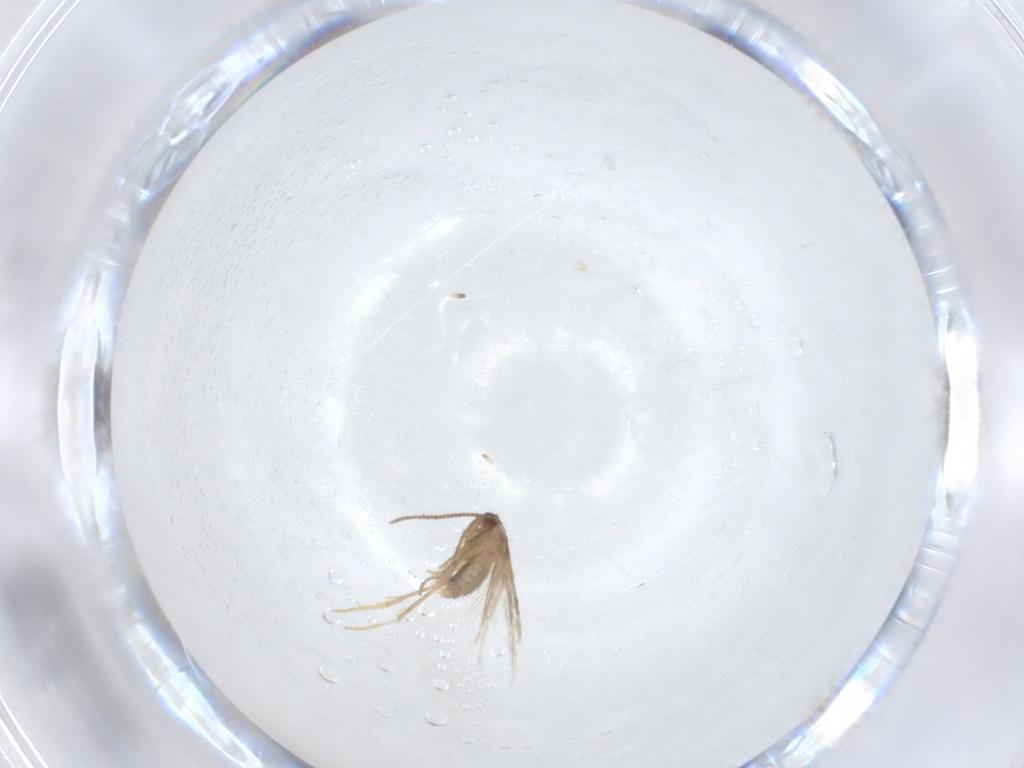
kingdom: Animalia
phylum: Arthropoda
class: Insecta
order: Lepidoptera
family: Nepticulidae
